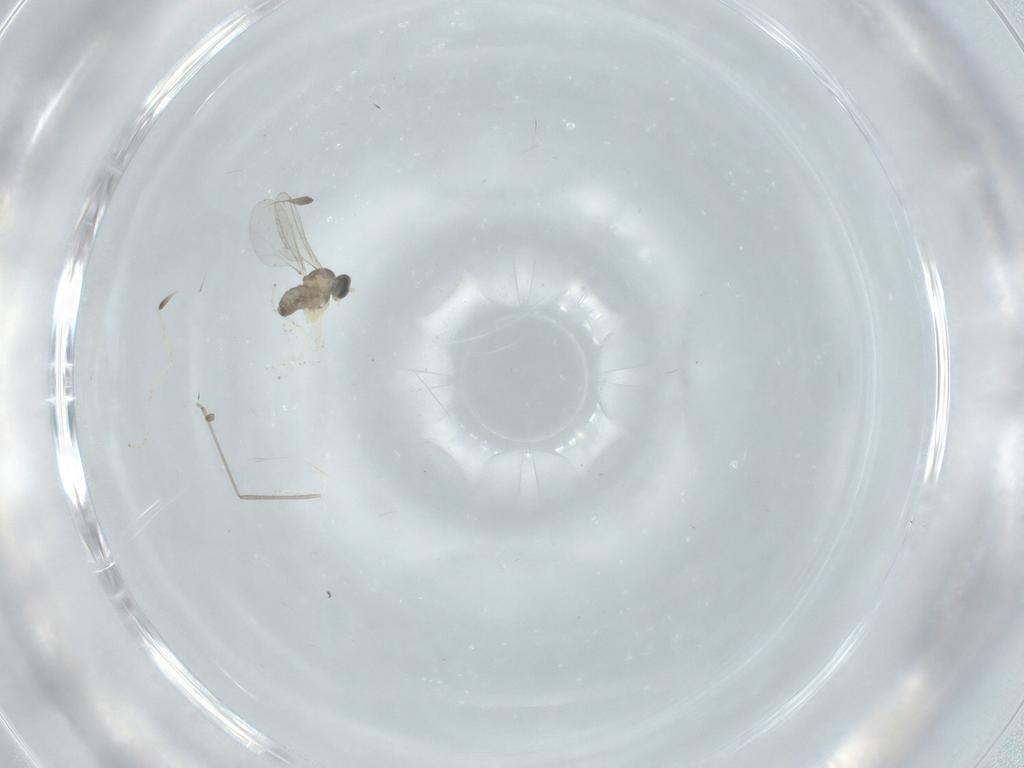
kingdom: Animalia
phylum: Arthropoda
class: Insecta
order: Diptera
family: Cecidomyiidae
